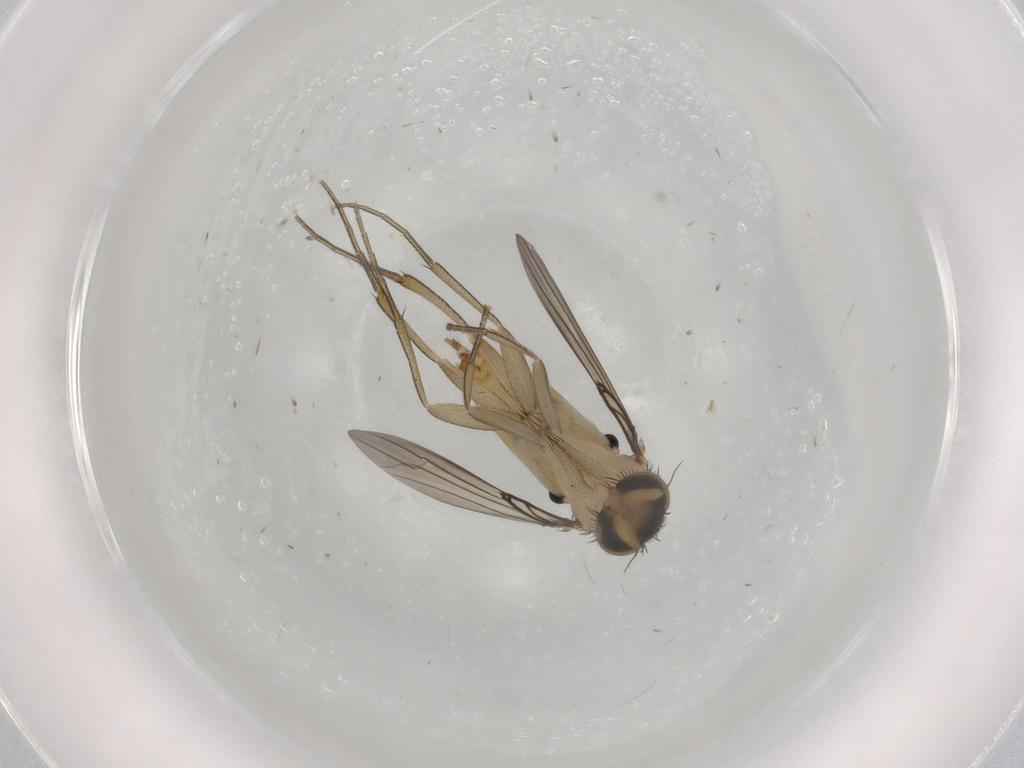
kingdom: Animalia
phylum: Arthropoda
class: Insecta
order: Diptera
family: Phoridae
